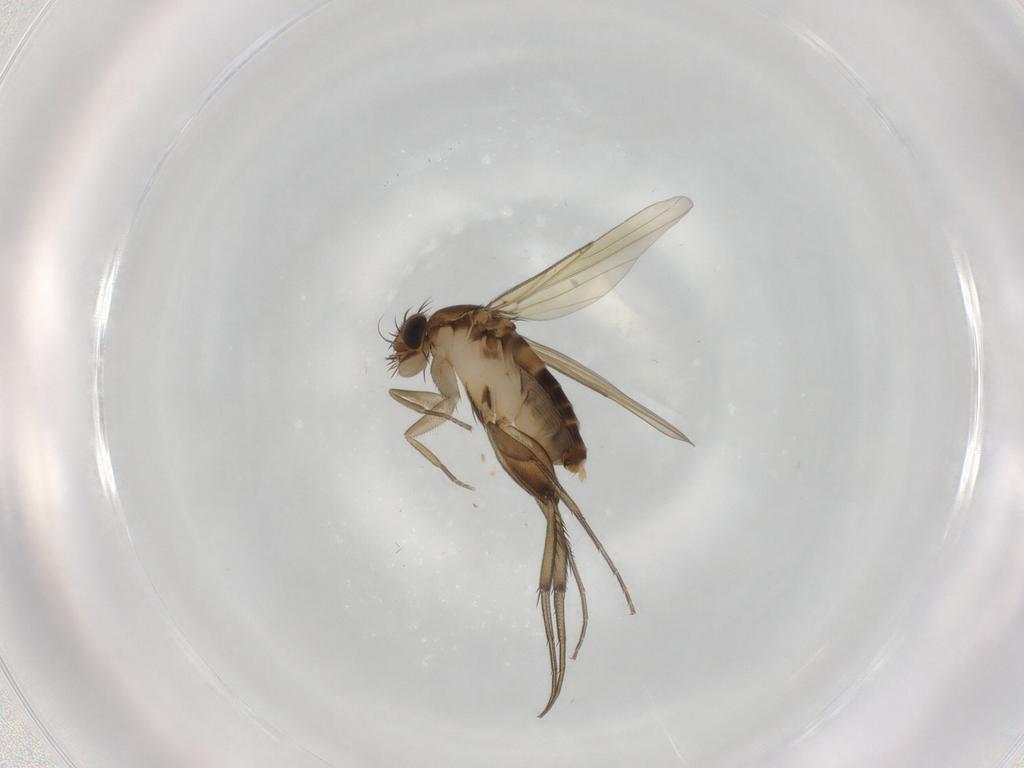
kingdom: Animalia
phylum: Arthropoda
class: Insecta
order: Diptera
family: Phoridae
